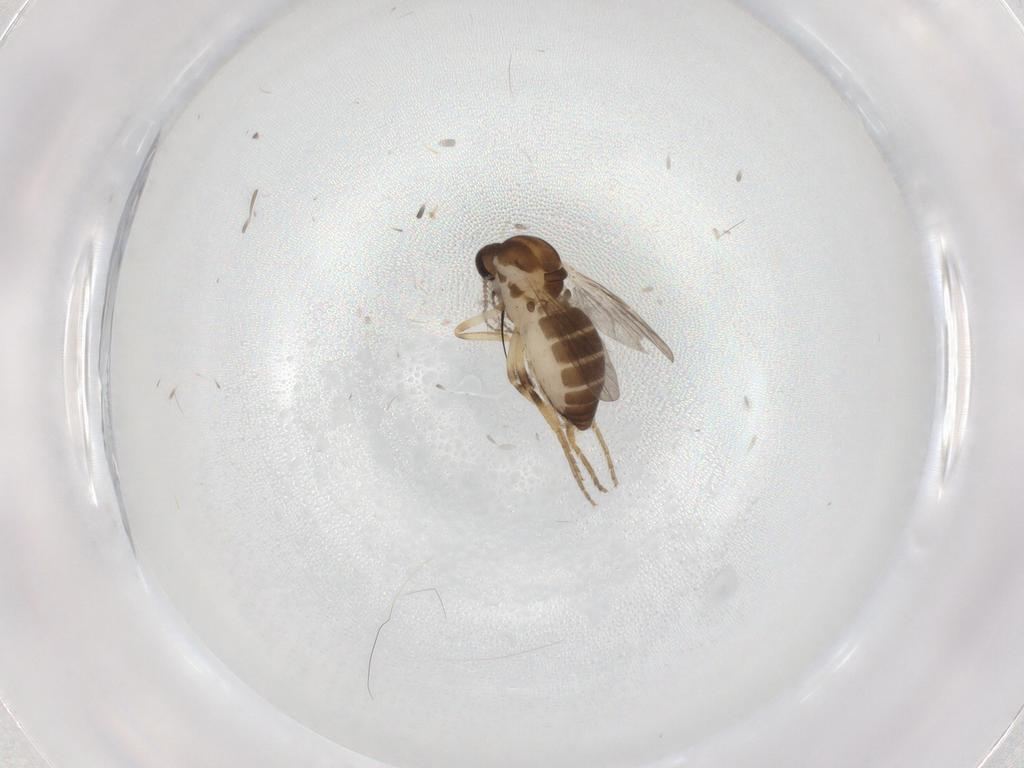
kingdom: Animalia
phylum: Arthropoda
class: Insecta
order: Diptera
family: Ceratopogonidae
